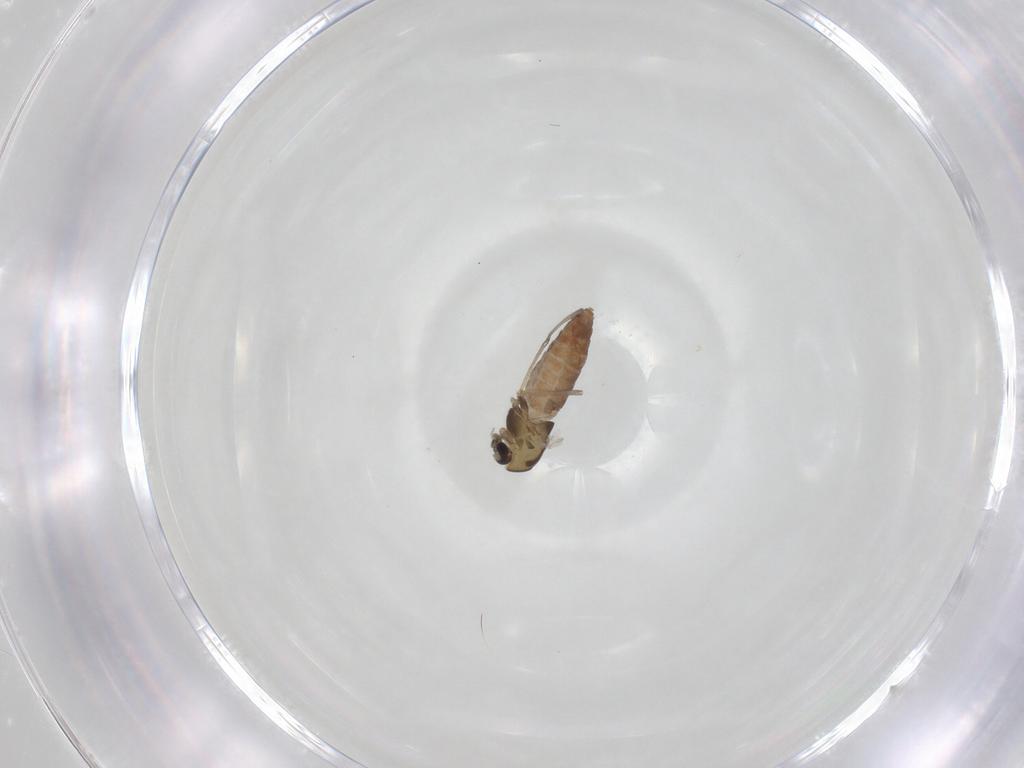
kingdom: Animalia
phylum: Arthropoda
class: Insecta
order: Diptera
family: Chironomidae
